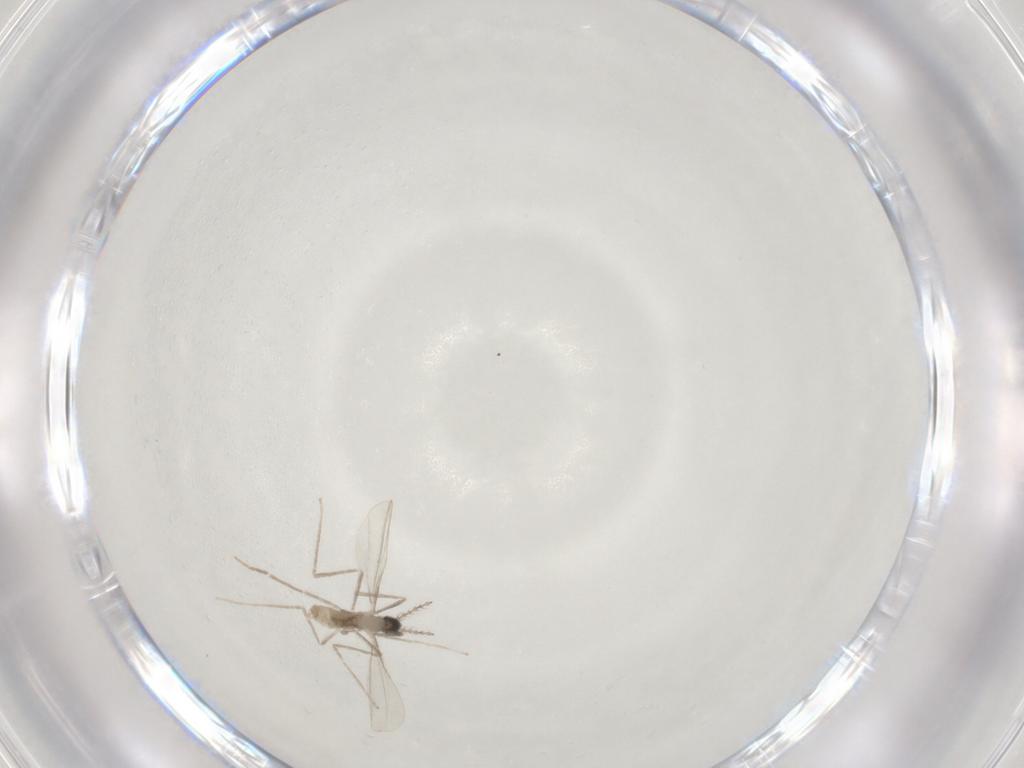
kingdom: Animalia
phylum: Arthropoda
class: Insecta
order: Diptera
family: Cecidomyiidae
